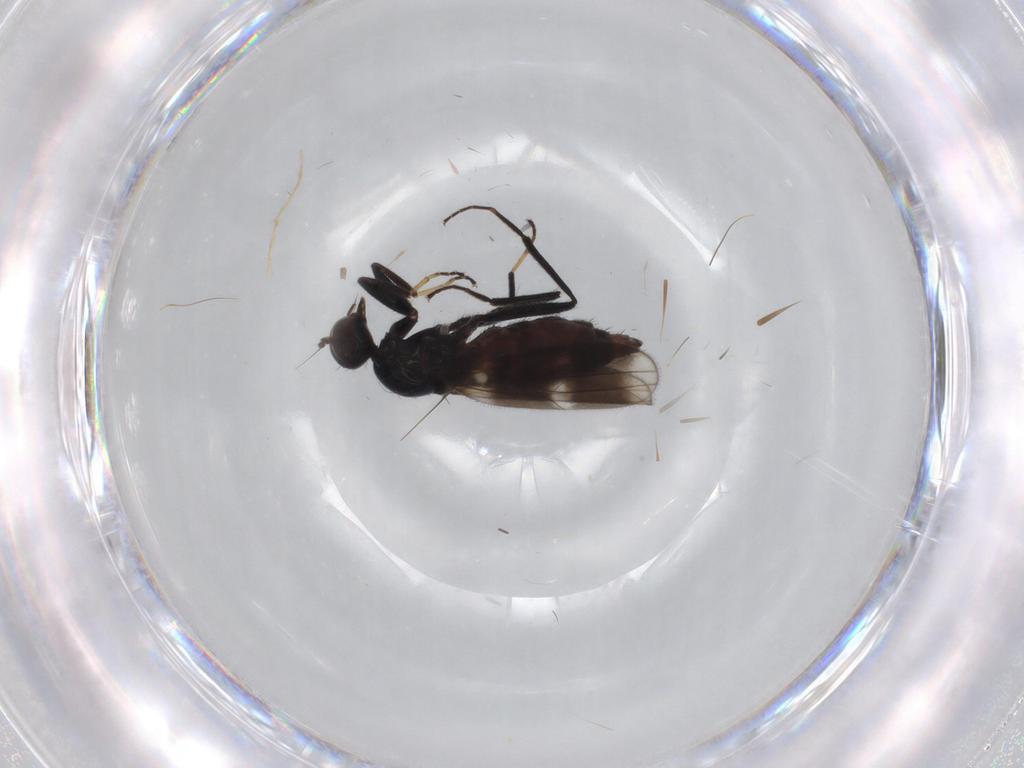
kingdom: Animalia
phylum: Arthropoda
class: Insecta
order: Diptera
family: Hybotidae
